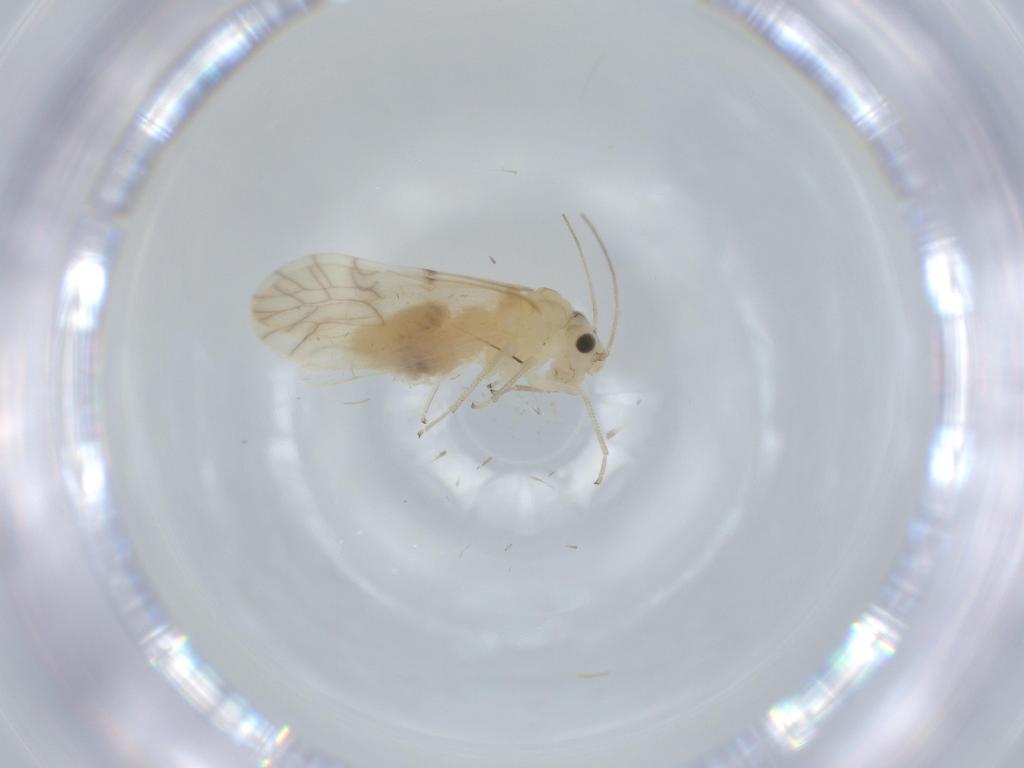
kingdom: Animalia
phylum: Arthropoda
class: Insecta
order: Psocodea
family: Caeciliusidae
